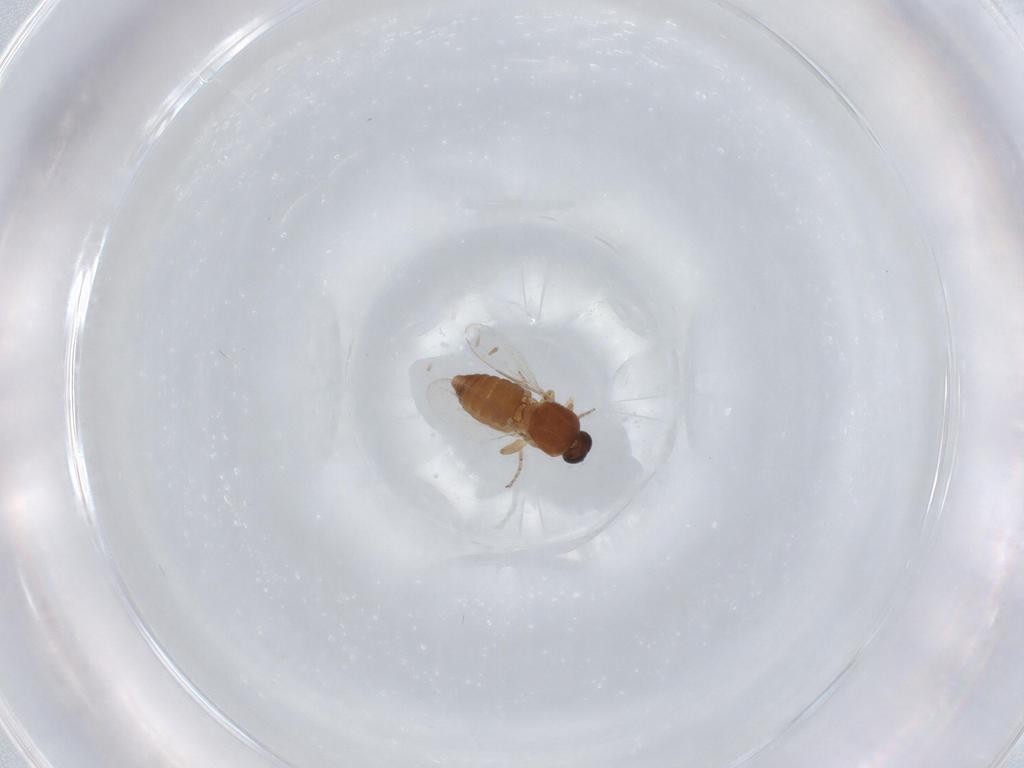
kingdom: Animalia
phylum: Arthropoda
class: Insecta
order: Diptera
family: Ceratopogonidae
